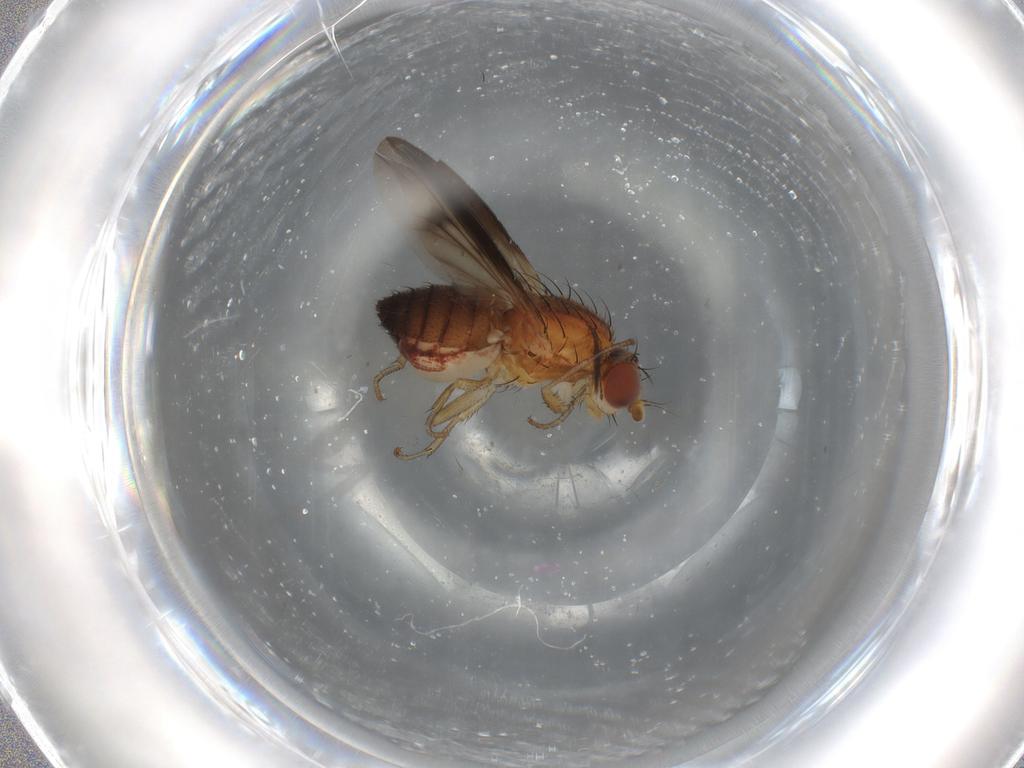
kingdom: Animalia
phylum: Arthropoda
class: Insecta
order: Diptera
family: Heleomyzidae
